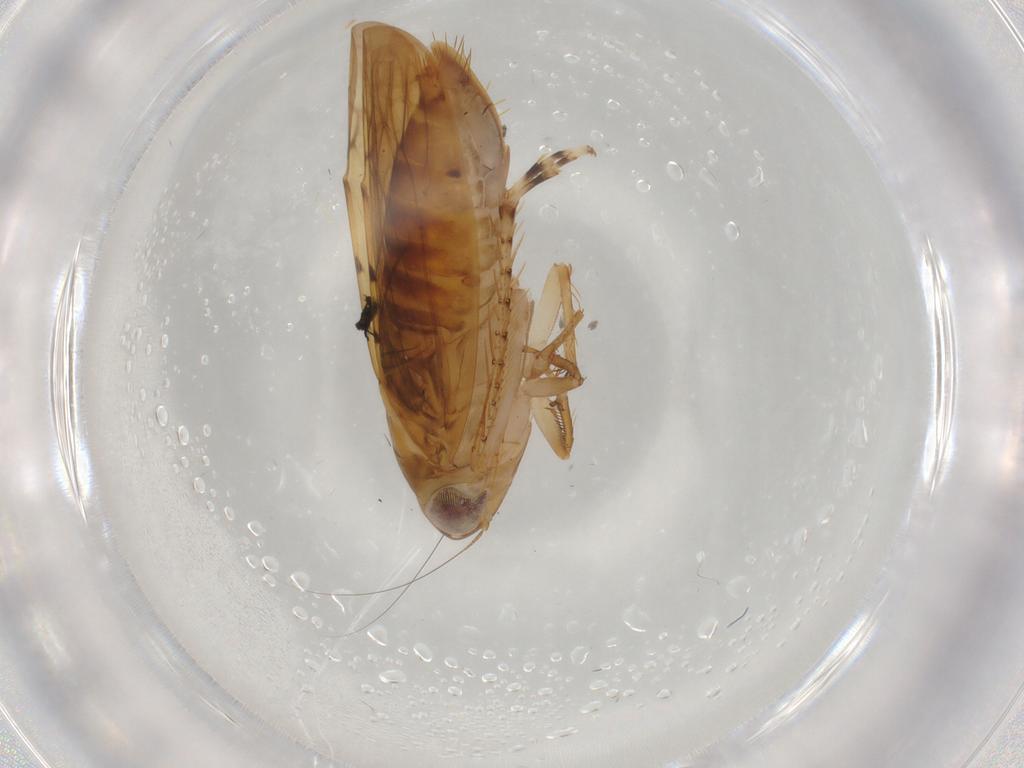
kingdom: Animalia
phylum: Arthropoda
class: Insecta
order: Hemiptera
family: Cicadellidae
